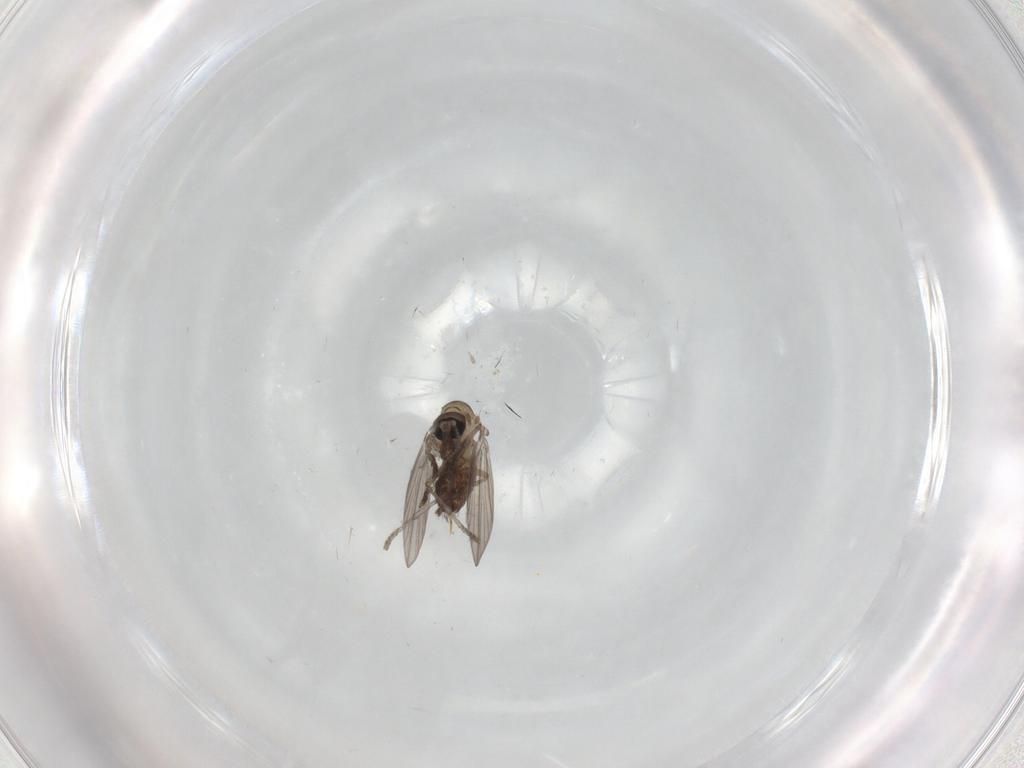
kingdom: Animalia
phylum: Arthropoda
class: Insecta
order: Diptera
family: Psychodidae
